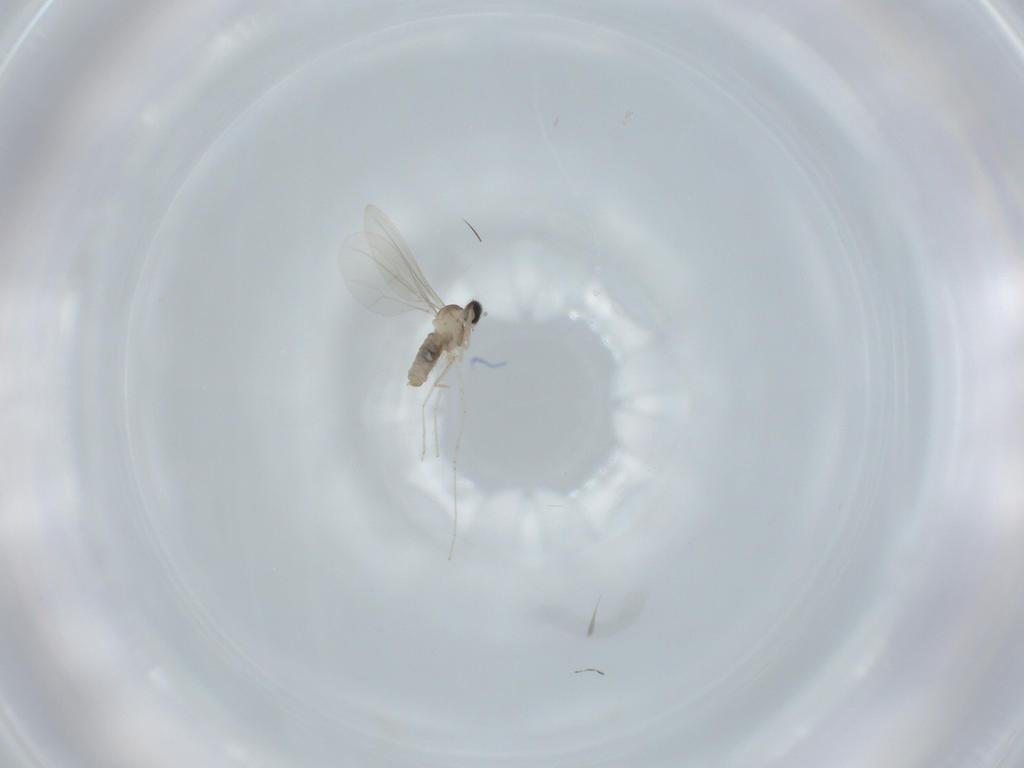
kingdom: Animalia
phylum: Arthropoda
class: Insecta
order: Diptera
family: Cecidomyiidae
